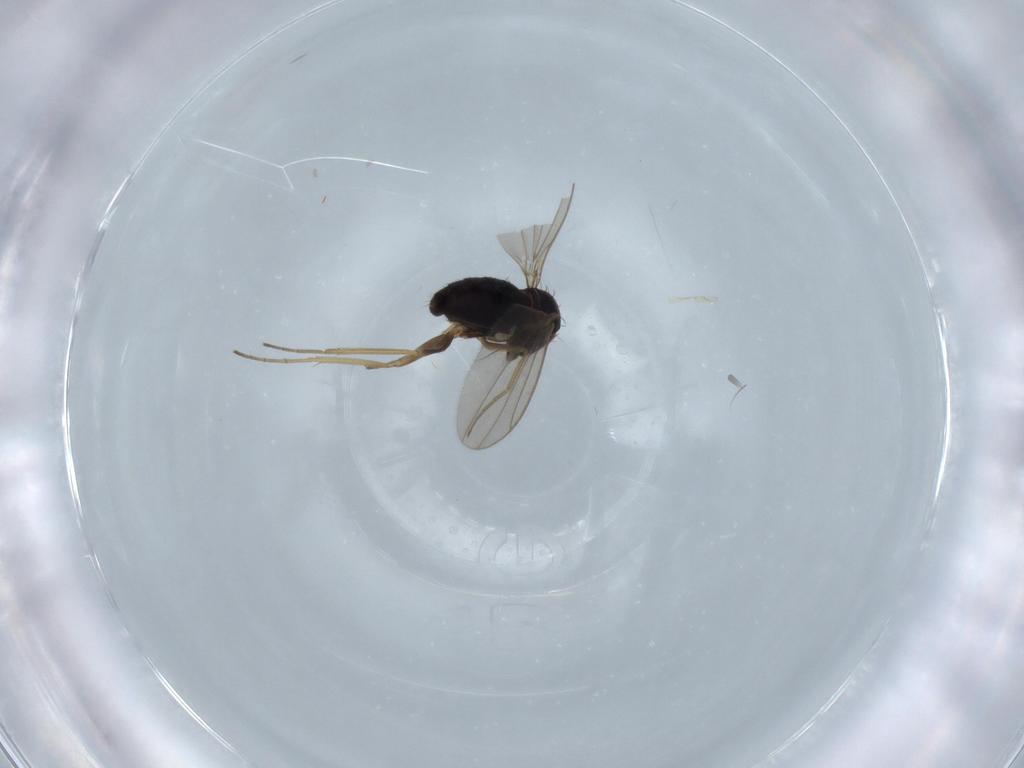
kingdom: Animalia
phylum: Arthropoda
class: Insecta
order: Diptera
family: Dolichopodidae
